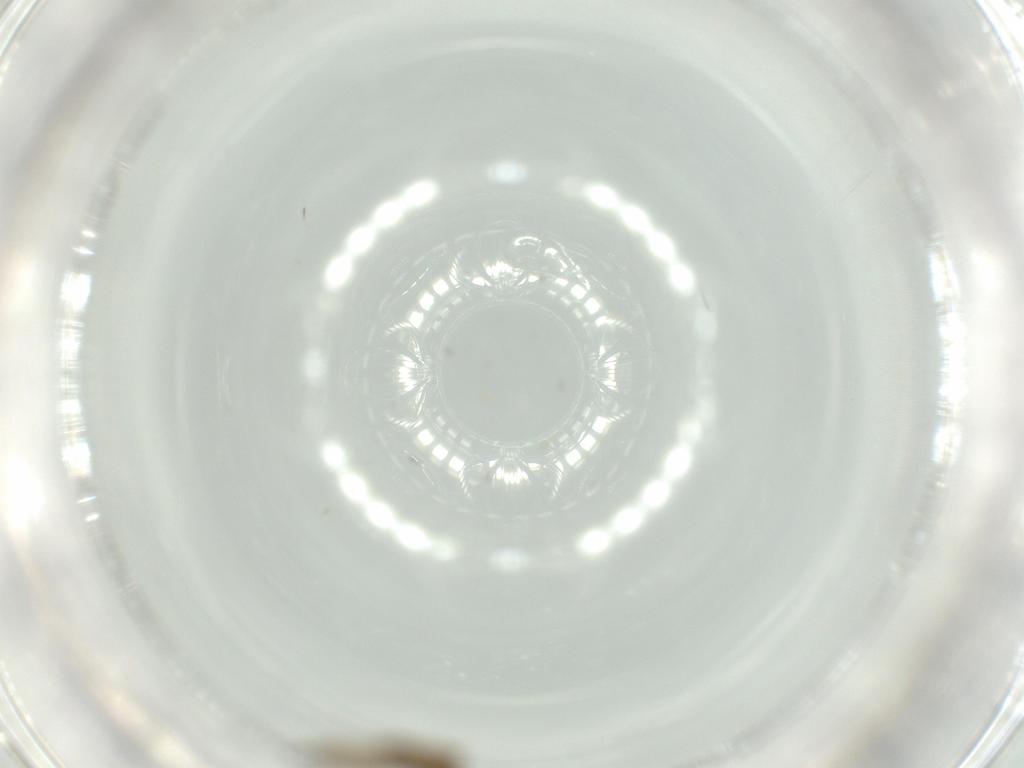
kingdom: Animalia
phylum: Arthropoda
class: Insecta
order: Diptera
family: Cecidomyiidae
